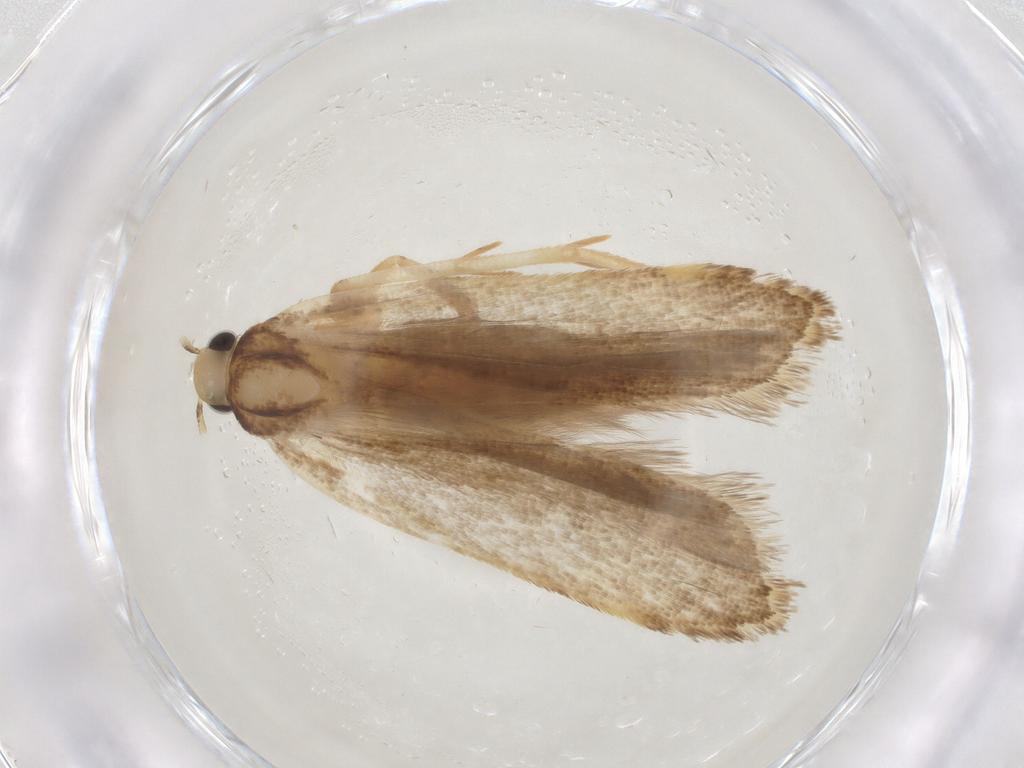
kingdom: Animalia
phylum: Arthropoda
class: Insecta
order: Lepidoptera
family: Gelechiidae
